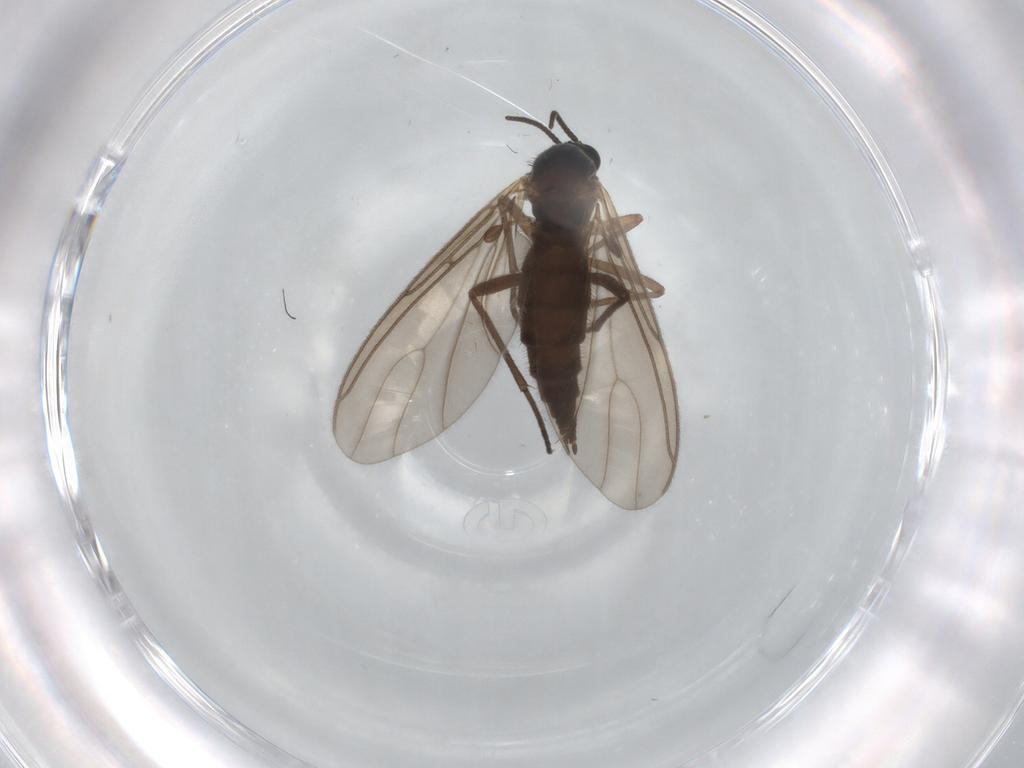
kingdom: Animalia
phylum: Arthropoda
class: Insecta
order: Diptera
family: Sciaridae
